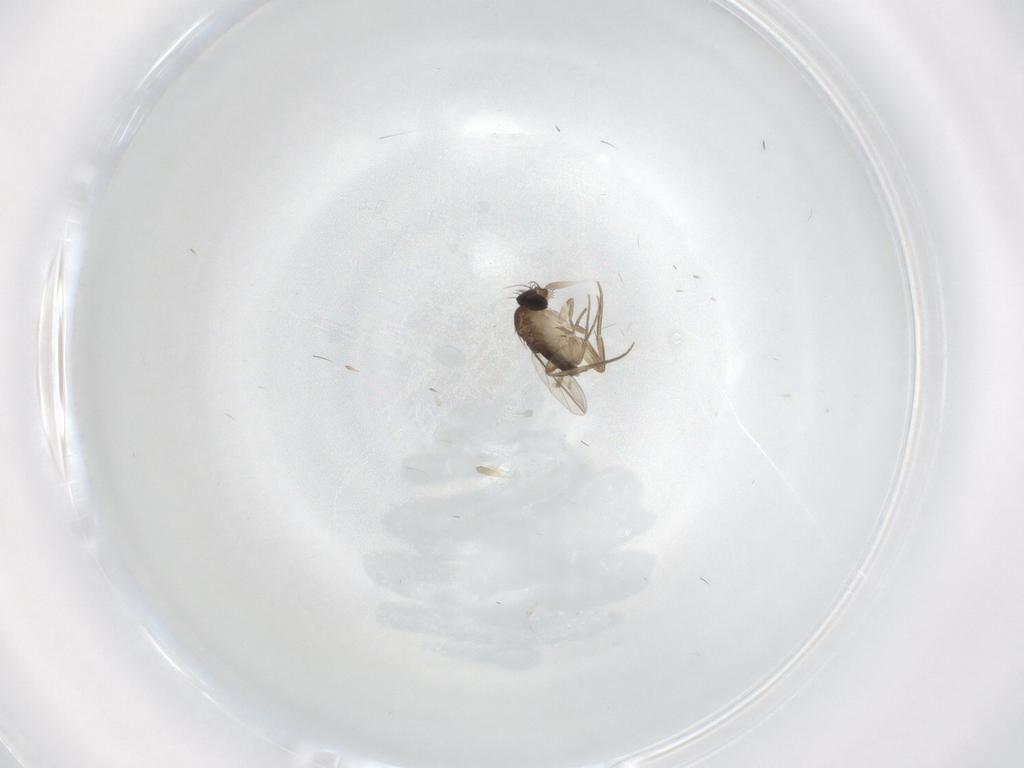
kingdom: Animalia
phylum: Arthropoda
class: Insecta
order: Diptera
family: Phoridae
